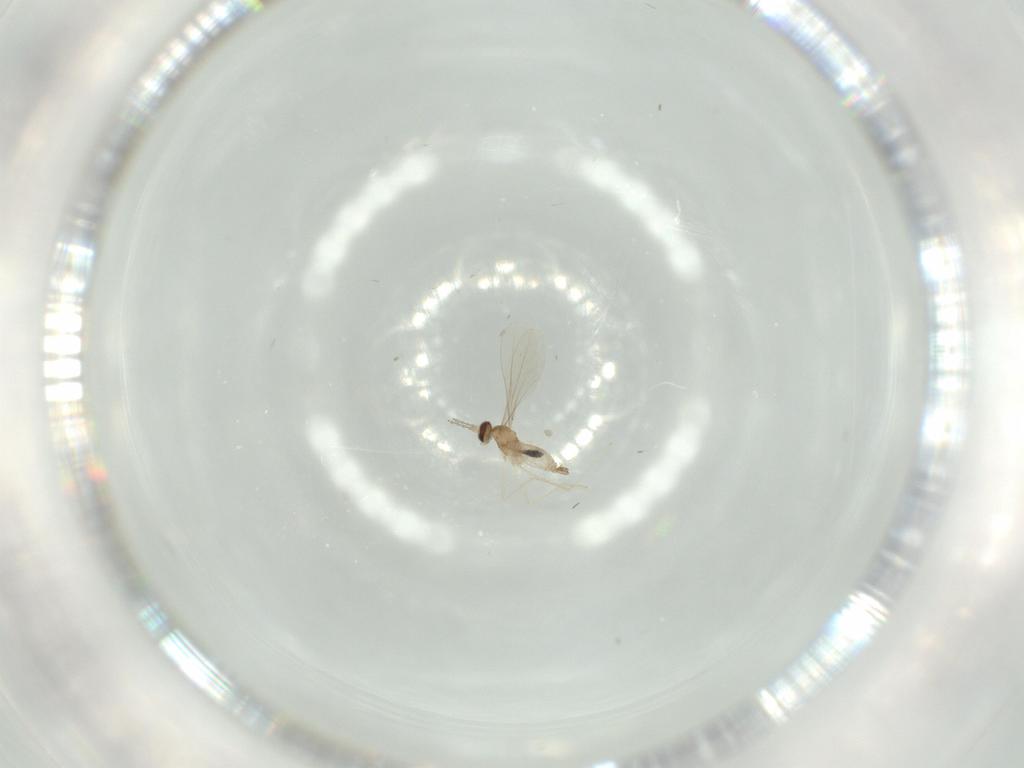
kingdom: Animalia
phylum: Arthropoda
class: Insecta
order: Diptera
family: Cecidomyiidae
